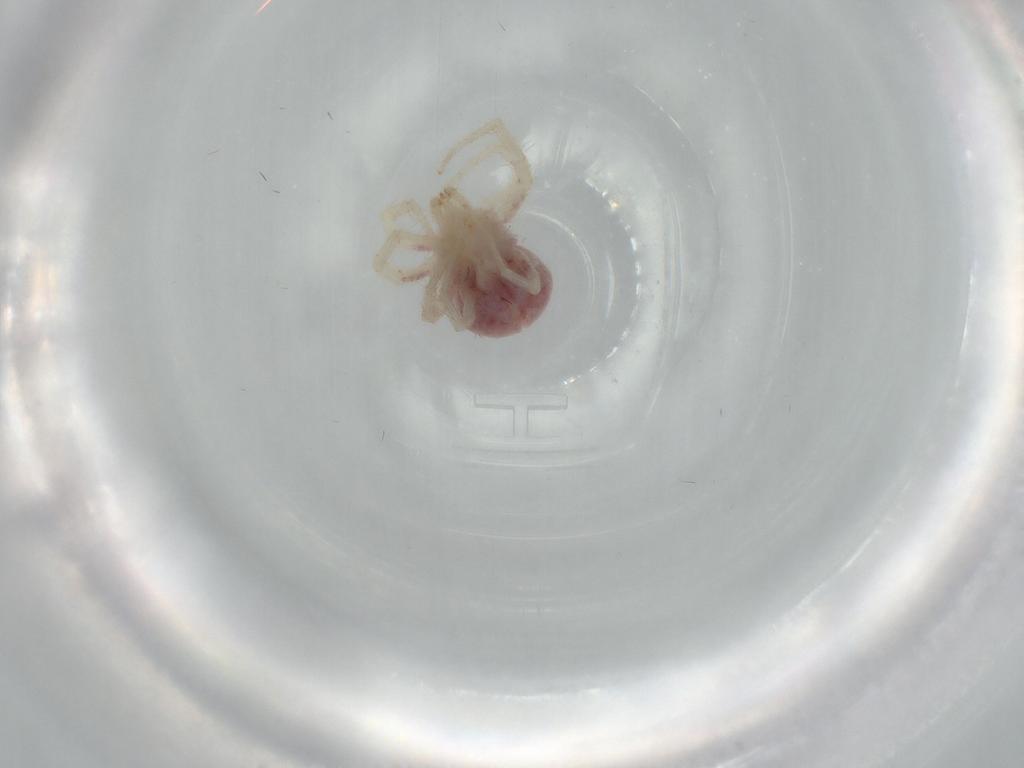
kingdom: Animalia
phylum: Arthropoda
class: Arachnida
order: Trombidiformes
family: Anystidae
